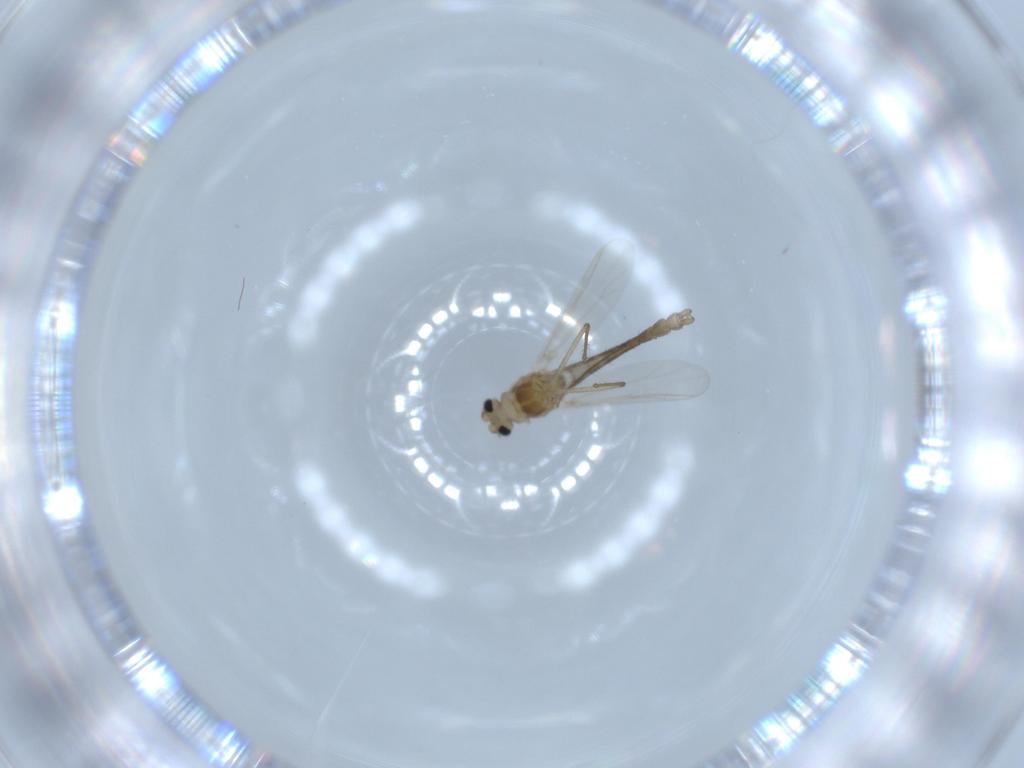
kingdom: Animalia
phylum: Arthropoda
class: Insecta
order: Diptera
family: Chironomidae
